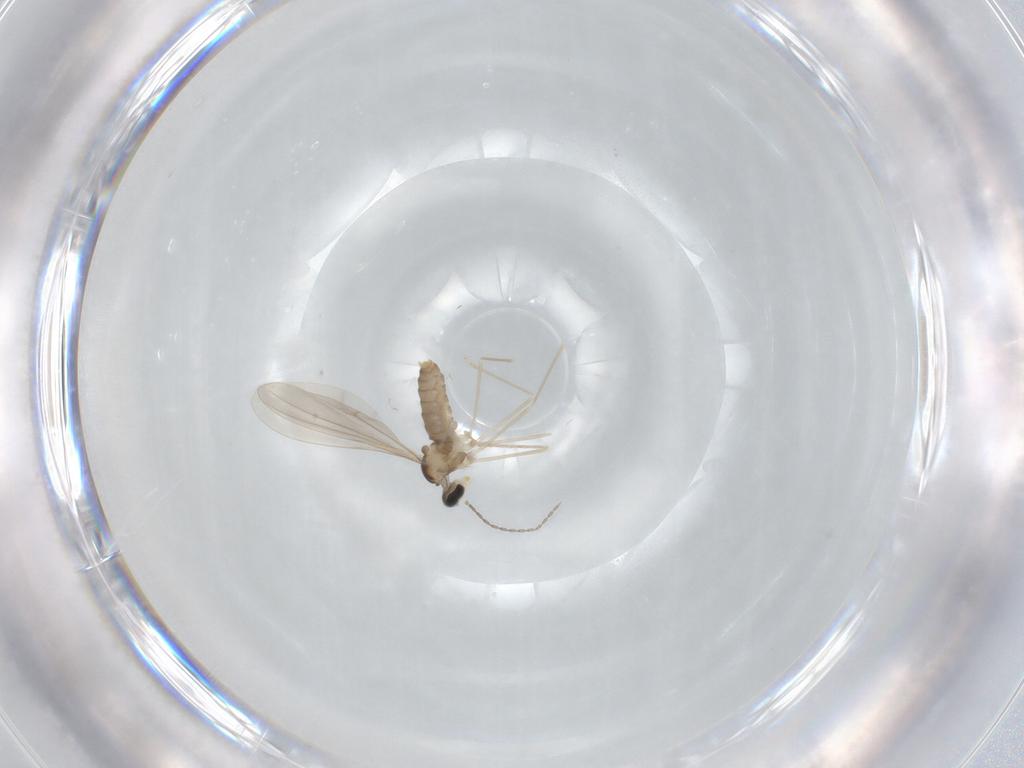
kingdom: Animalia
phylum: Arthropoda
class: Insecta
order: Diptera
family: Cecidomyiidae
